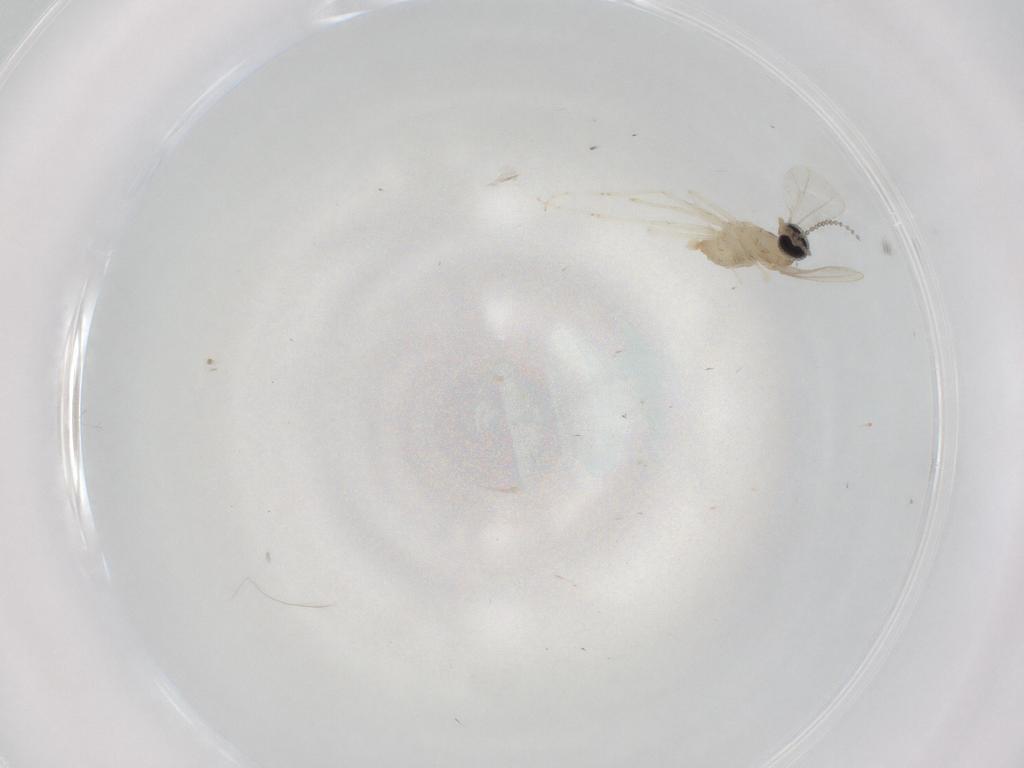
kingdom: Animalia
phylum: Arthropoda
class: Insecta
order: Diptera
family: Cecidomyiidae
